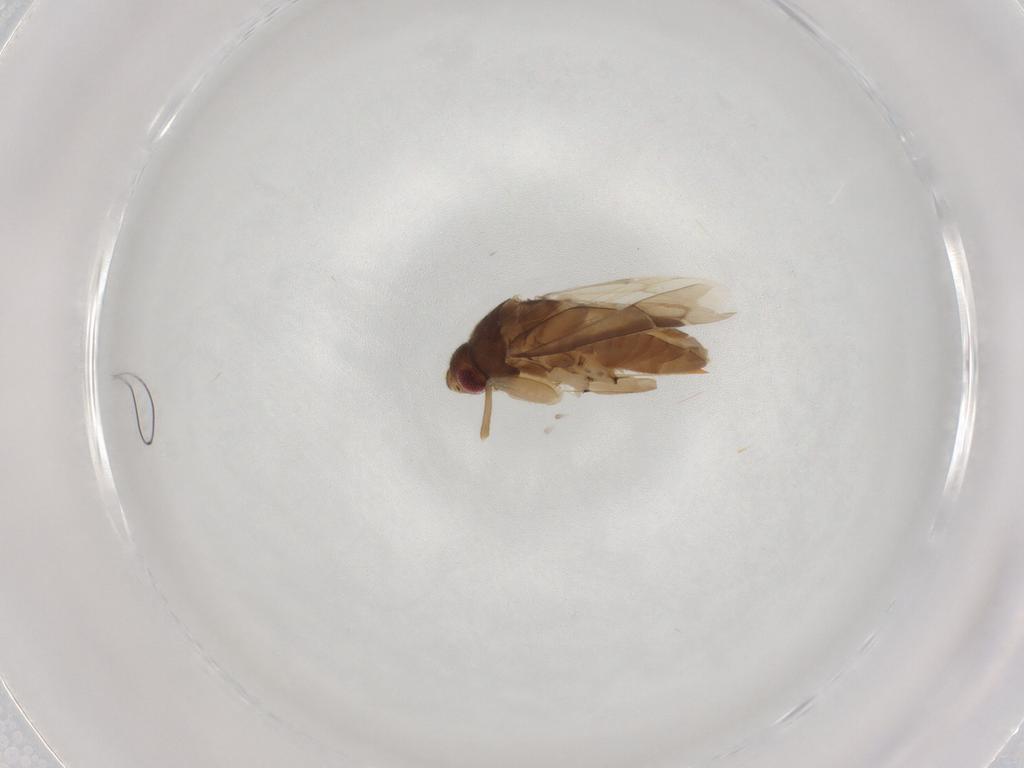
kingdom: Animalia
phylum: Arthropoda
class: Insecta
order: Hemiptera
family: Miridae
